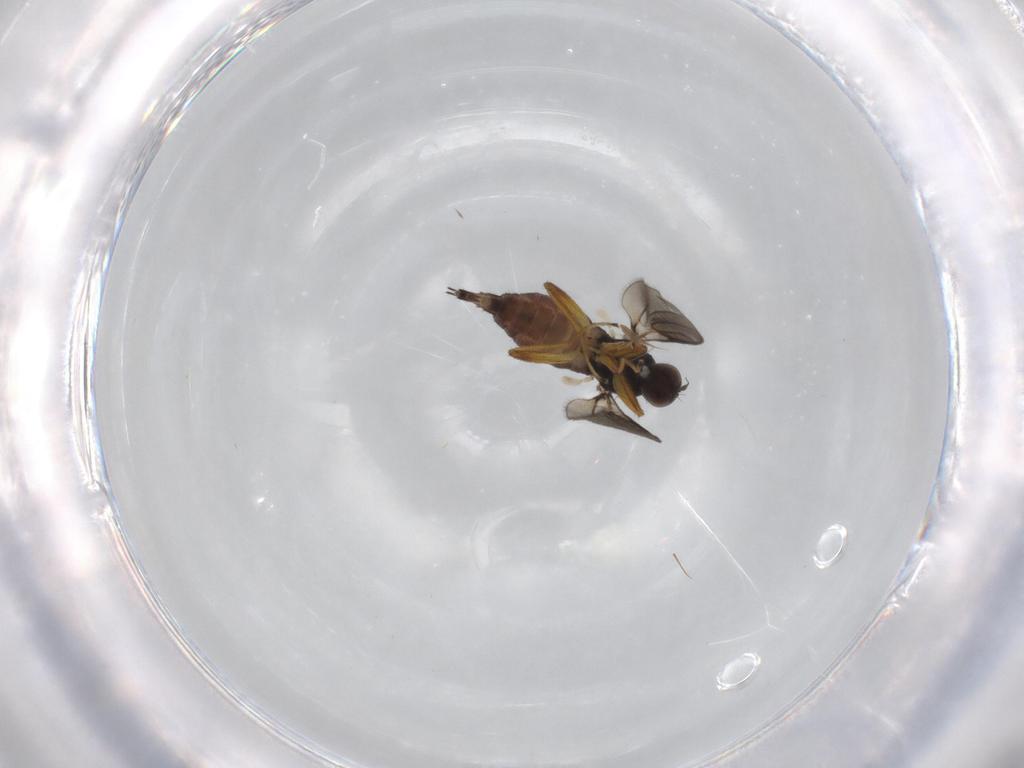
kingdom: Animalia
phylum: Arthropoda
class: Insecta
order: Diptera
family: Hybotidae
